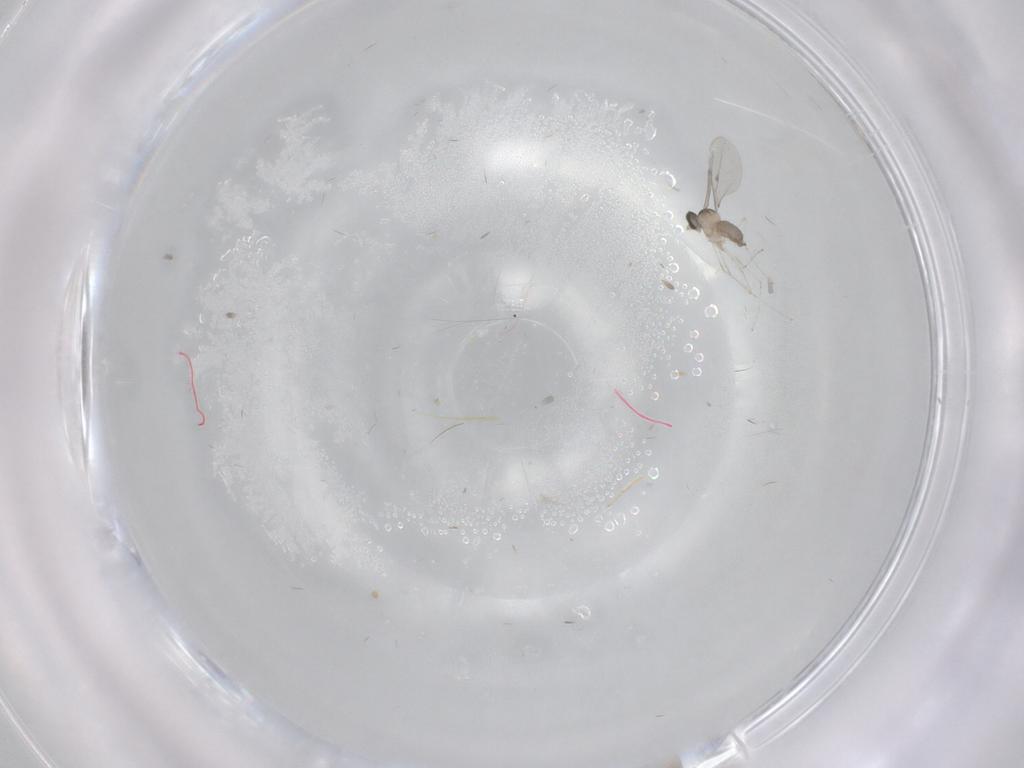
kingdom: Animalia
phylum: Arthropoda
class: Insecta
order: Diptera
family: Cecidomyiidae
